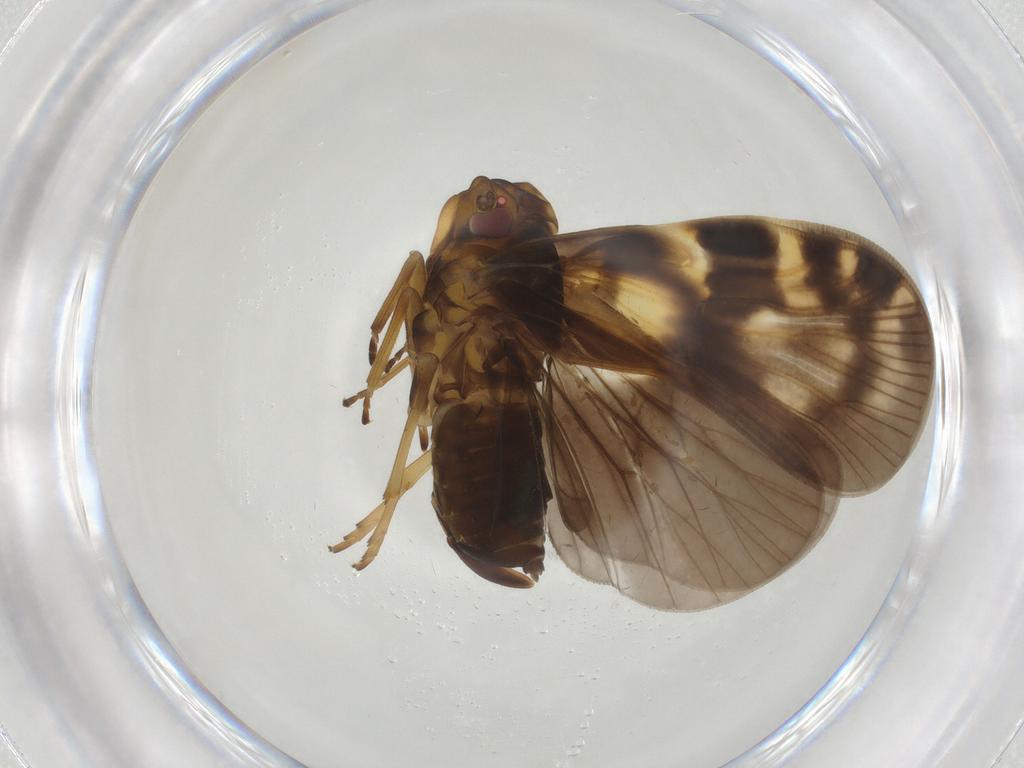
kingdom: Animalia
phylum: Arthropoda
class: Insecta
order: Hemiptera
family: Cixiidae
